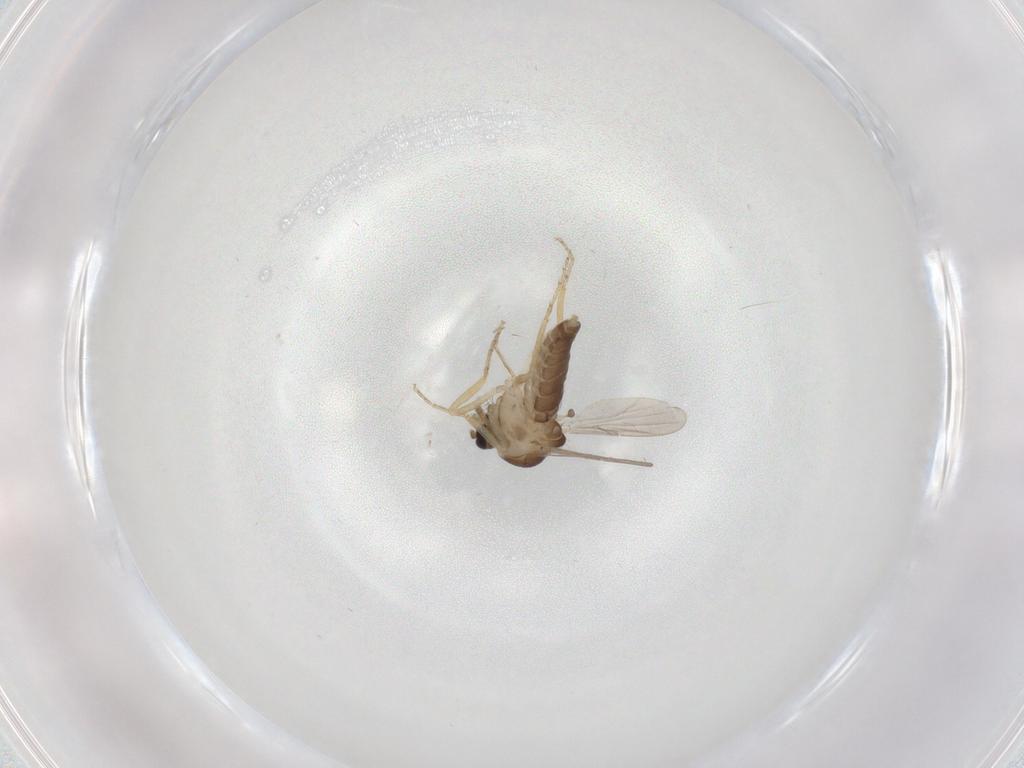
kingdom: Animalia
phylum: Arthropoda
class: Insecta
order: Diptera
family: Ceratopogonidae
